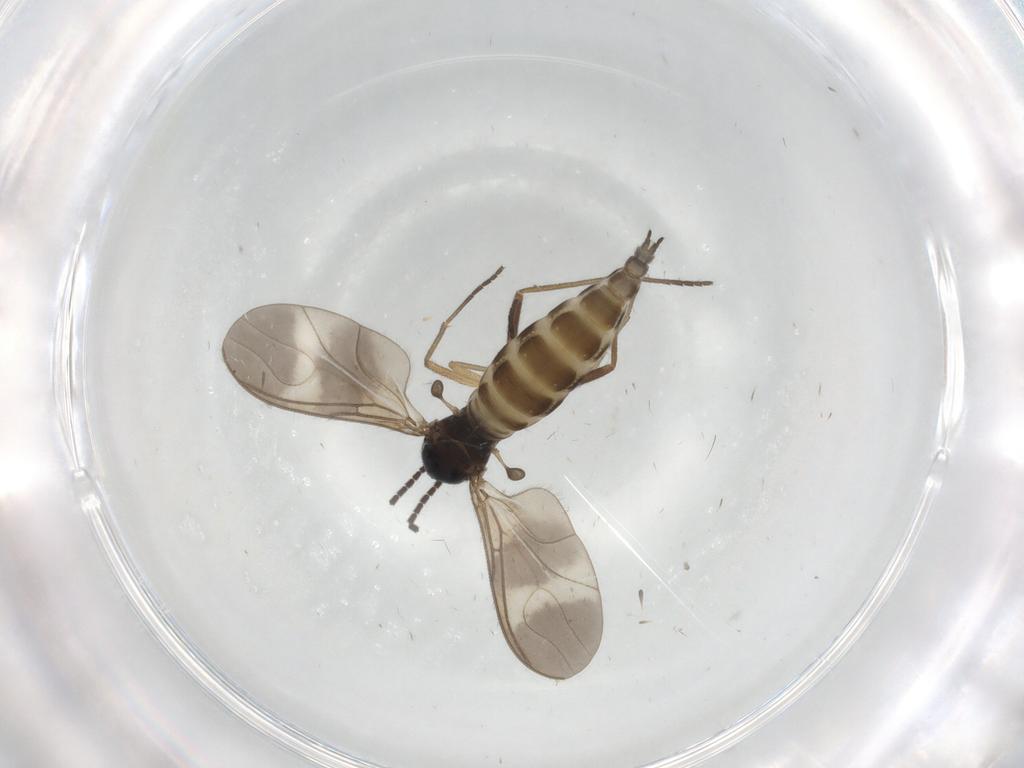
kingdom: Animalia
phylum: Arthropoda
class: Insecta
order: Diptera
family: Sciaridae
